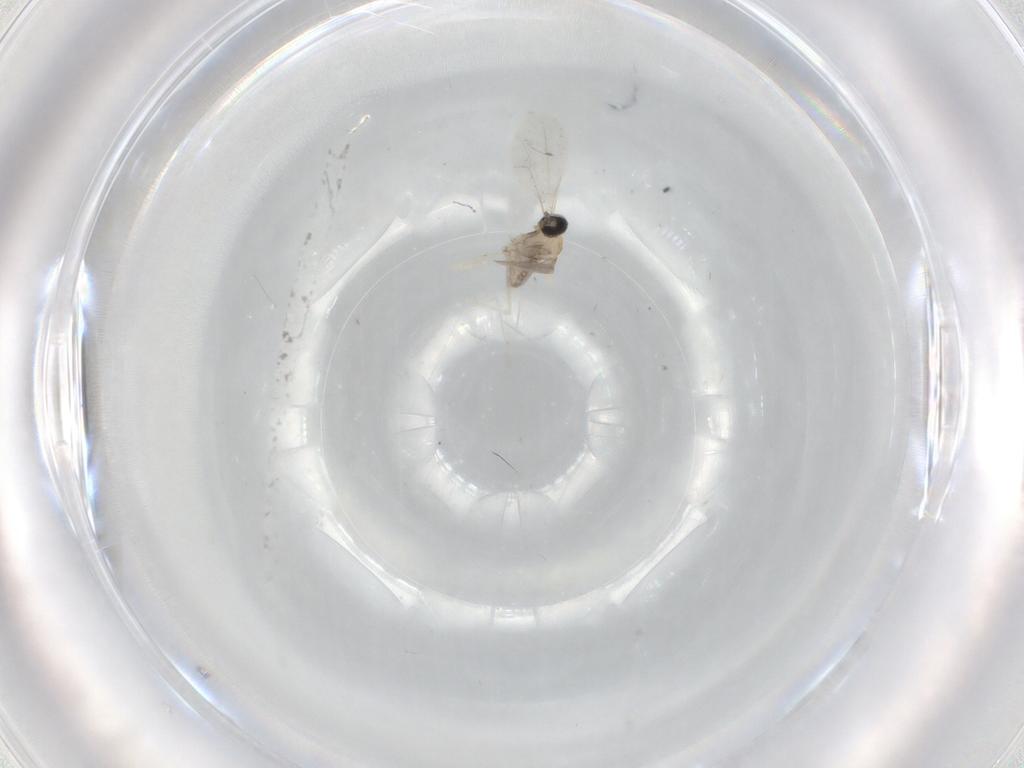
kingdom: Animalia
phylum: Arthropoda
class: Insecta
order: Diptera
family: Cecidomyiidae
